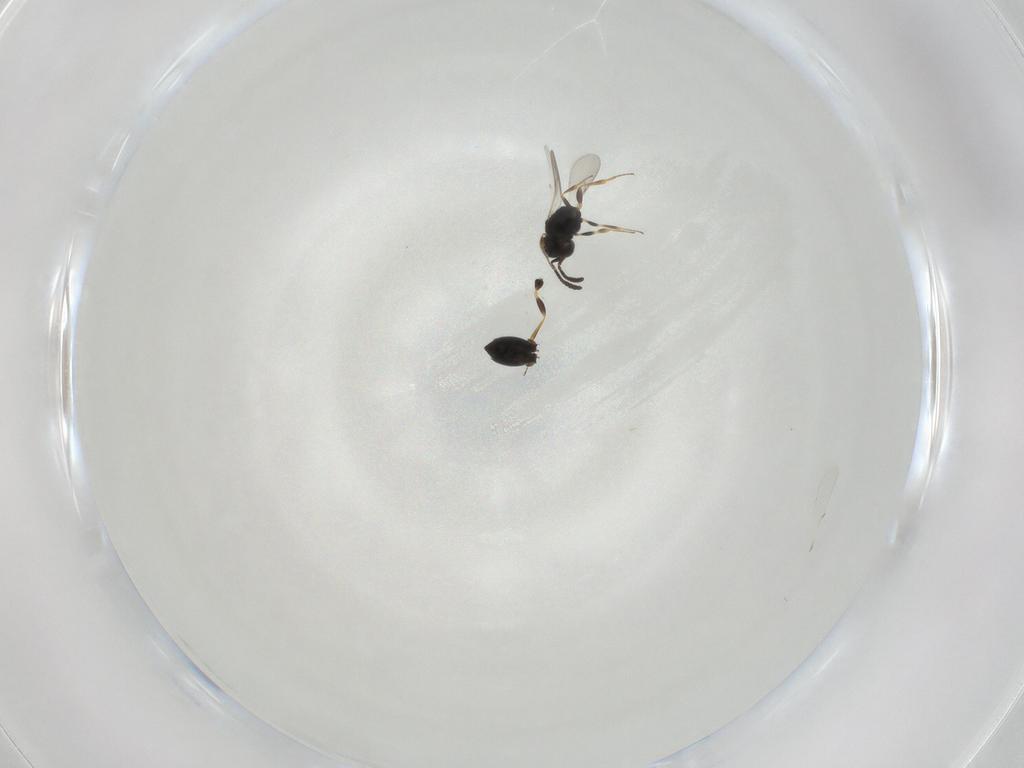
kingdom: Animalia
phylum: Arthropoda
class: Insecta
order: Hymenoptera
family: Scelionidae
